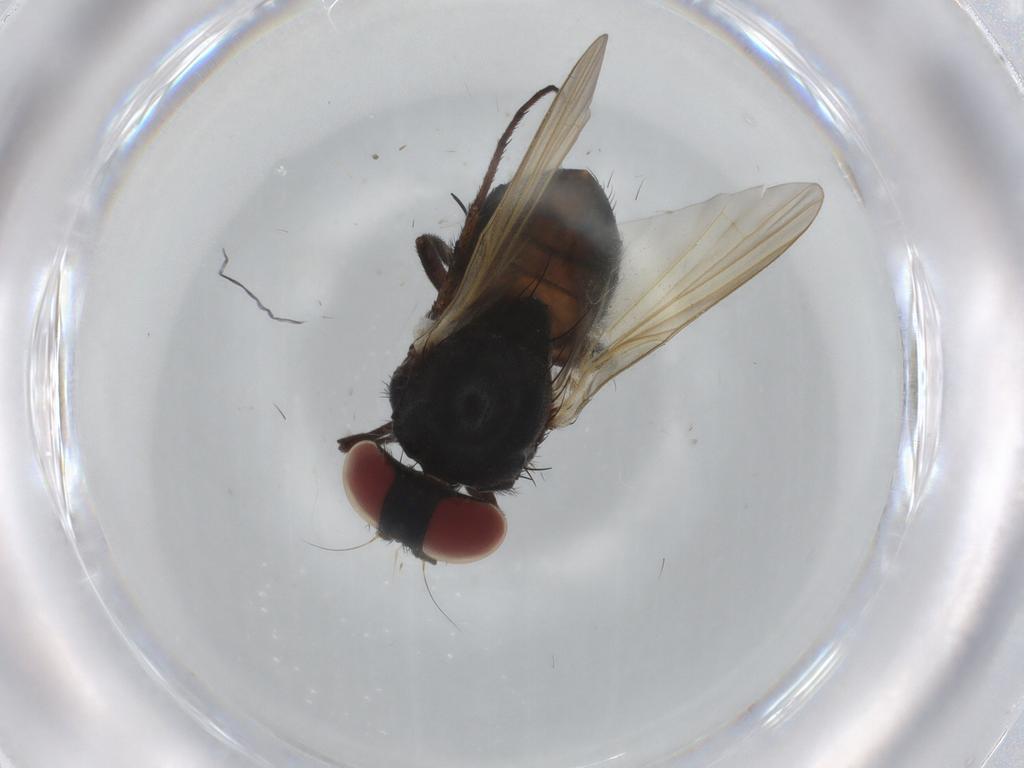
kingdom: Animalia
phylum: Arthropoda
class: Insecta
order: Diptera
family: Lonchaeidae
